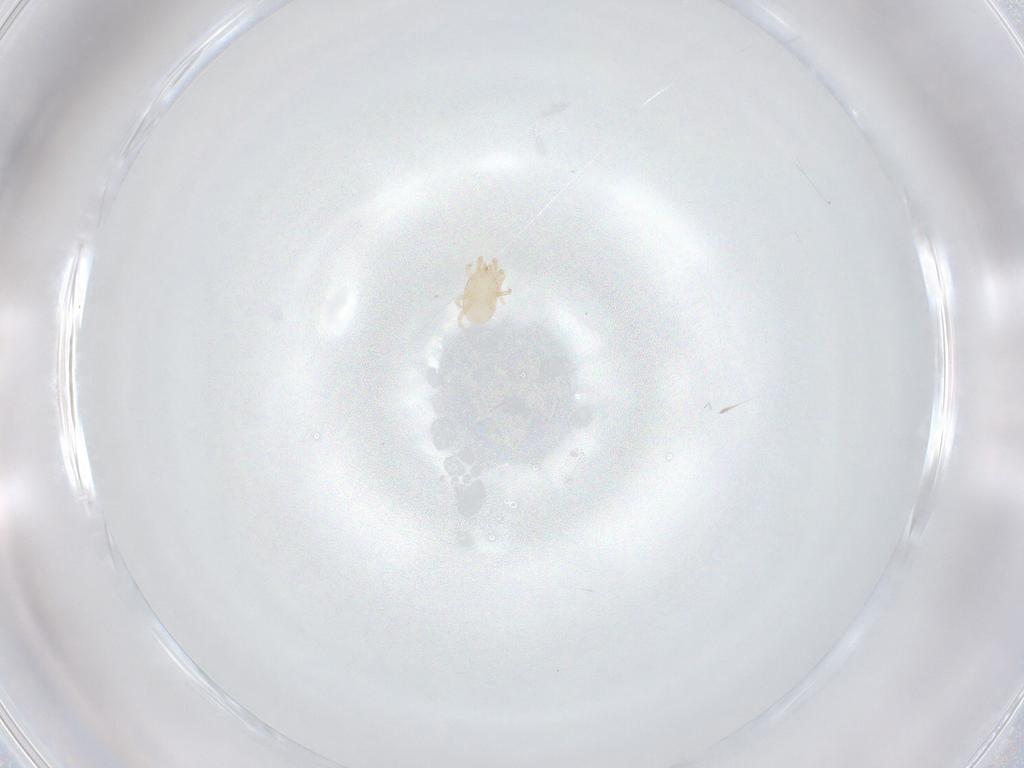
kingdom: Animalia
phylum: Arthropoda
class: Arachnida
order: Mesostigmata
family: Melicharidae
